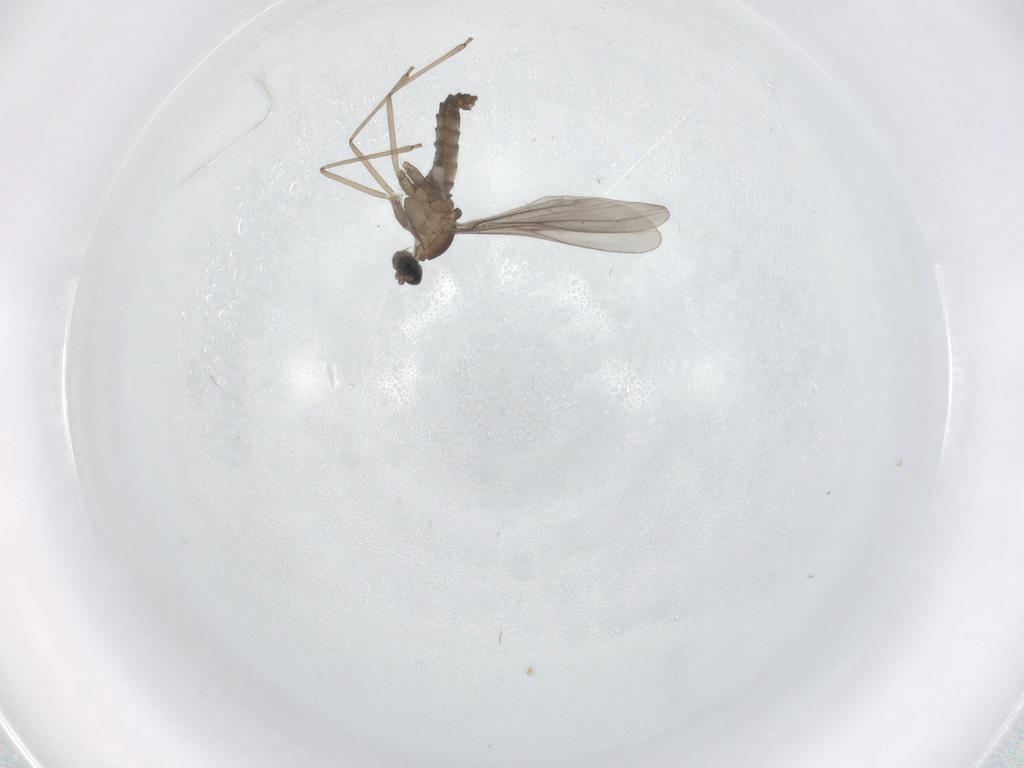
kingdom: Animalia
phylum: Arthropoda
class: Insecta
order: Diptera
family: Cecidomyiidae
